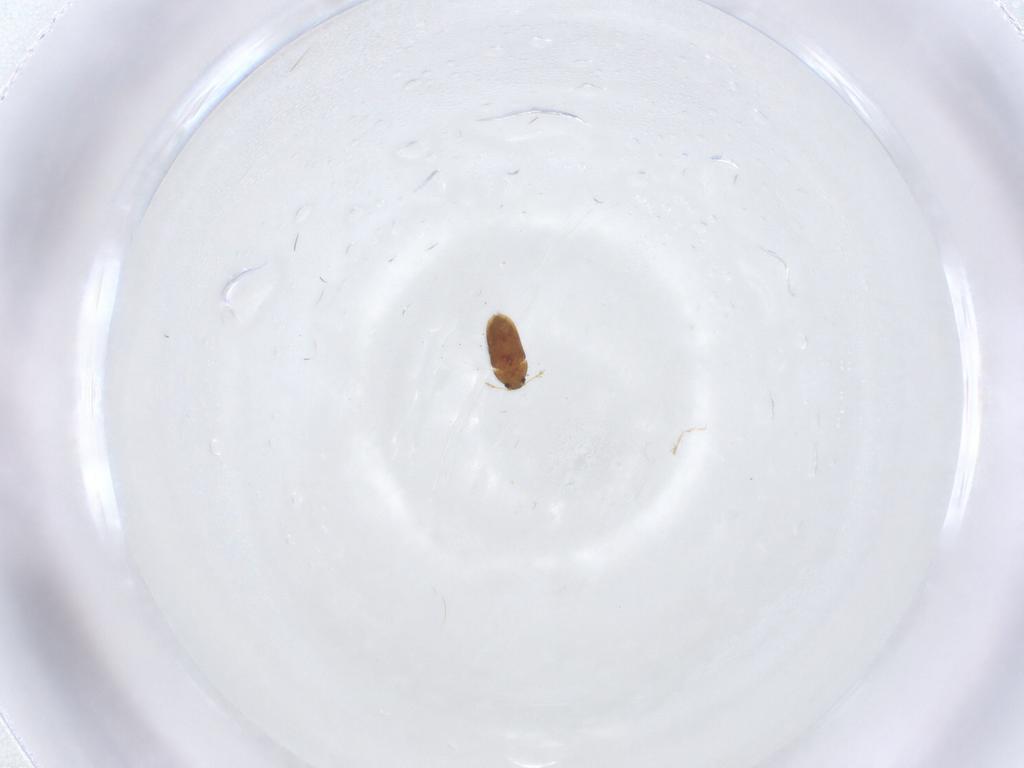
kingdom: Animalia
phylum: Arthropoda
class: Insecta
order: Coleoptera
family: Ptiliidae
